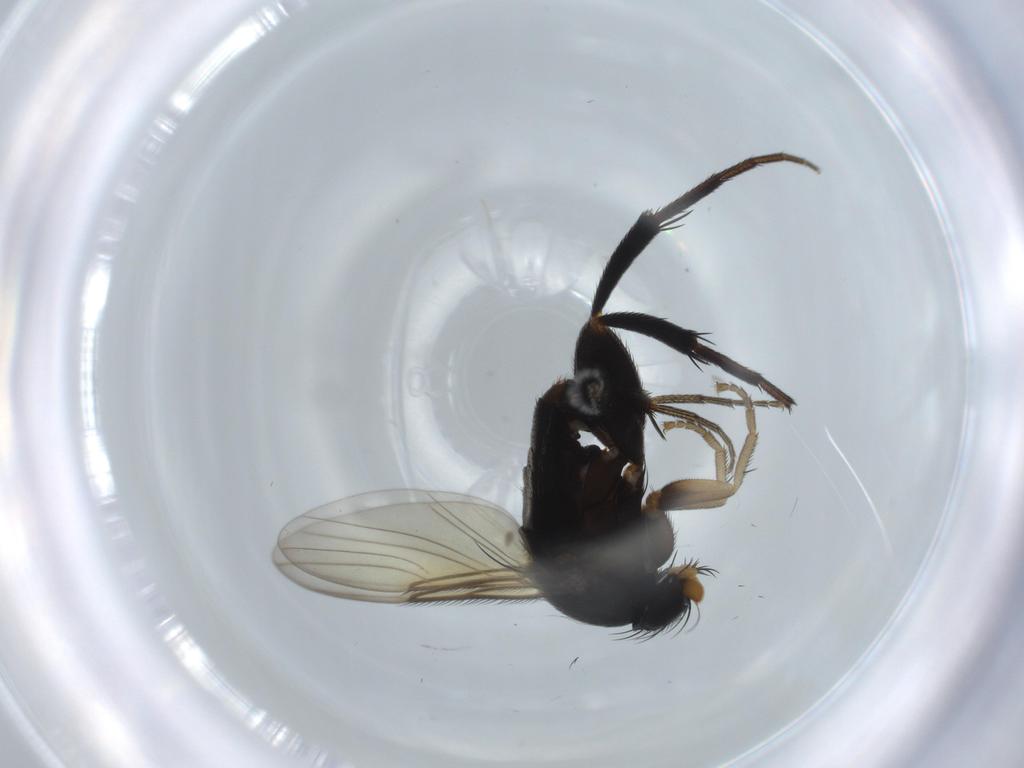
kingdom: Animalia
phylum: Arthropoda
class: Insecta
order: Diptera
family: Phoridae
